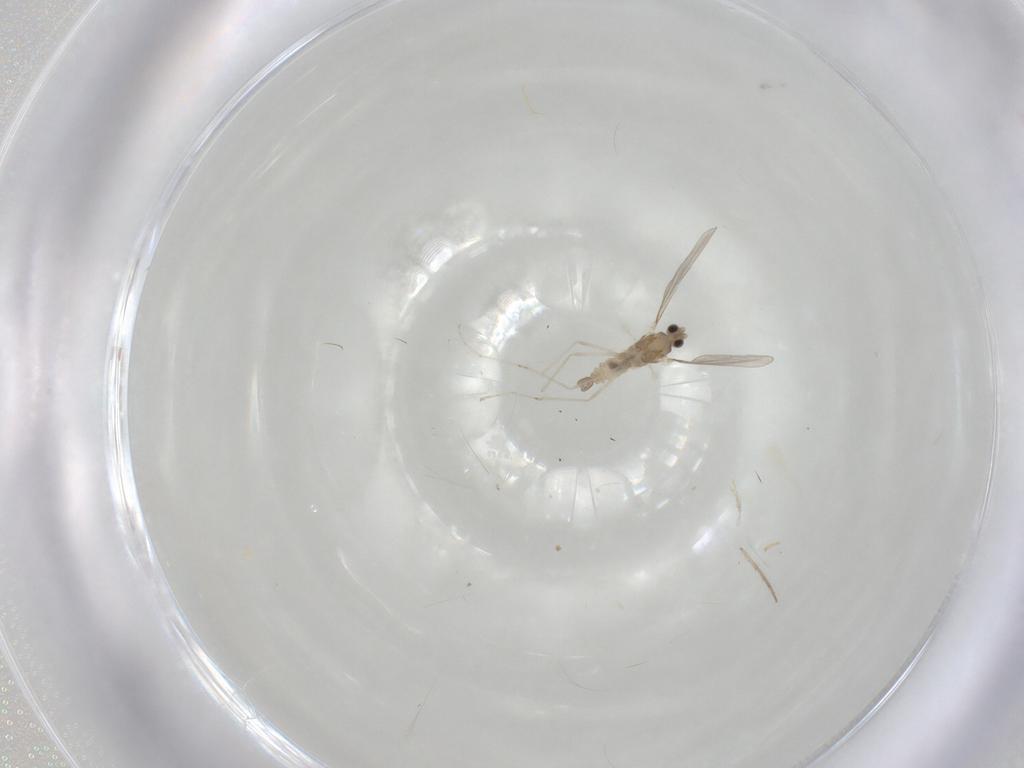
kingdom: Animalia
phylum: Arthropoda
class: Insecta
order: Diptera
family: Cecidomyiidae
